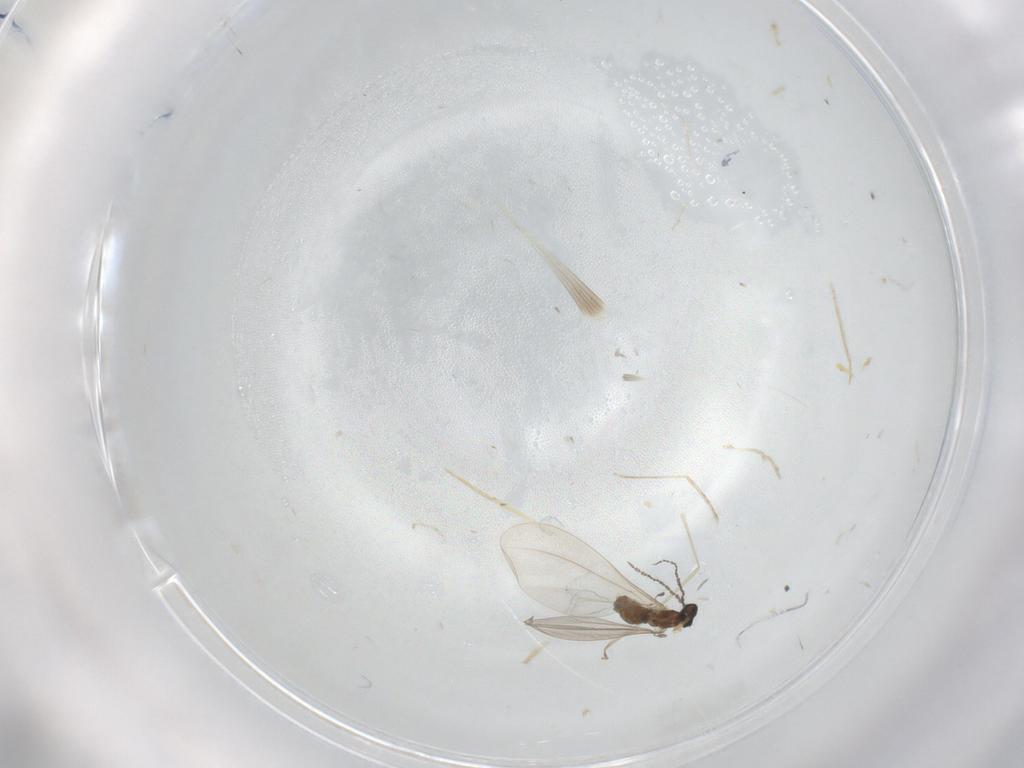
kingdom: Animalia
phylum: Arthropoda
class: Insecta
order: Diptera
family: Cecidomyiidae
